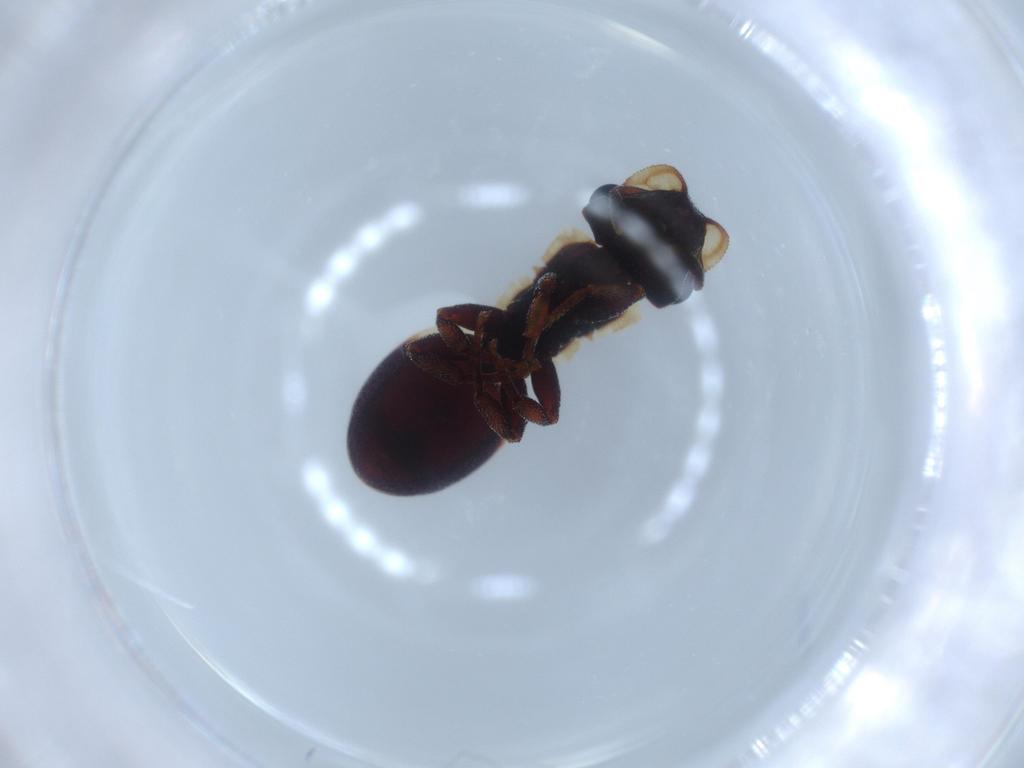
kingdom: Animalia
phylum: Arthropoda
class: Insecta
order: Hymenoptera
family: Formicidae
